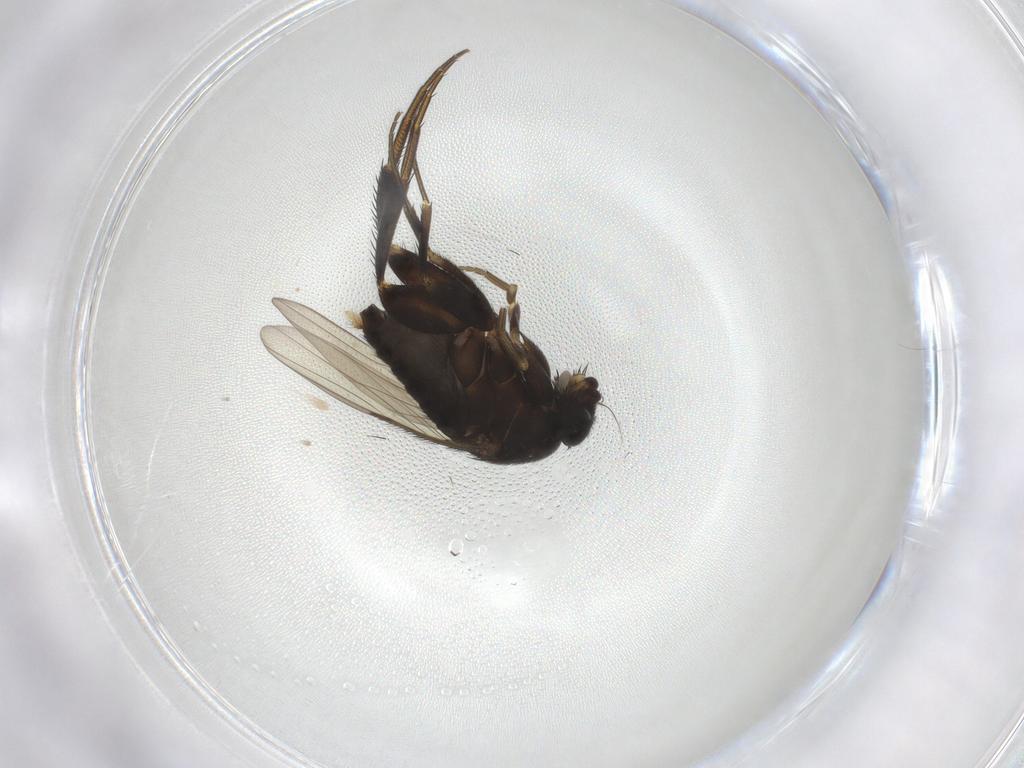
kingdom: Animalia
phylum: Arthropoda
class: Insecta
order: Diptera
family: Phoridae
